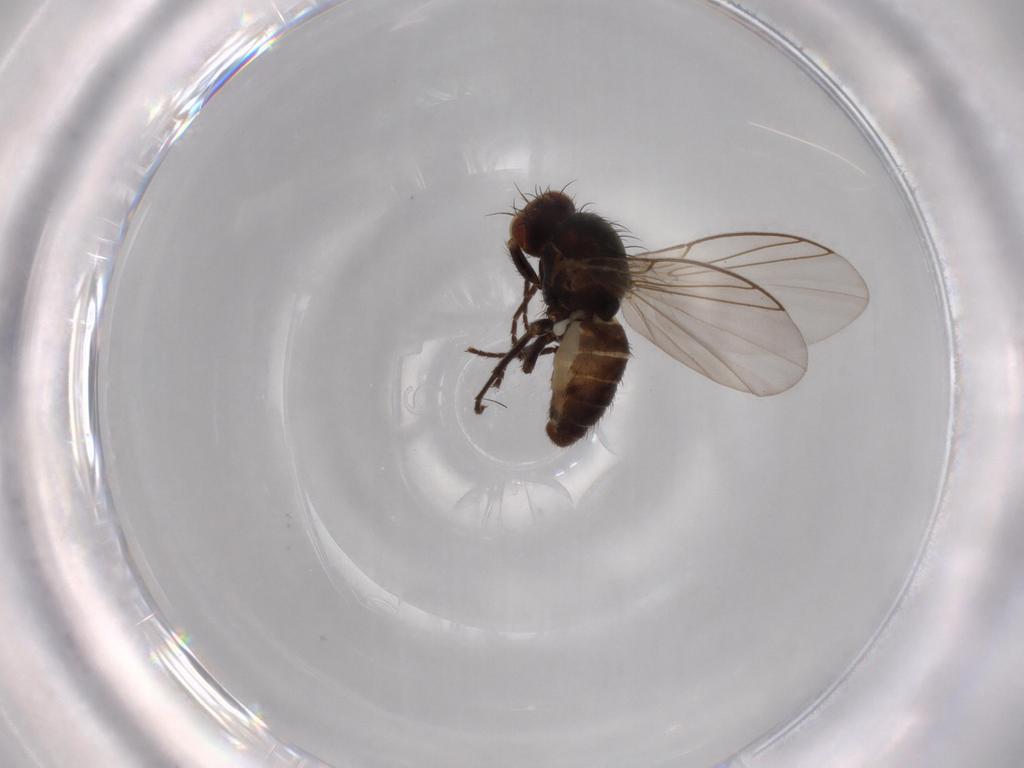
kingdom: Animalia
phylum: Arthropoda
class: Insecta
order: Diptera
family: Agromyzidae
